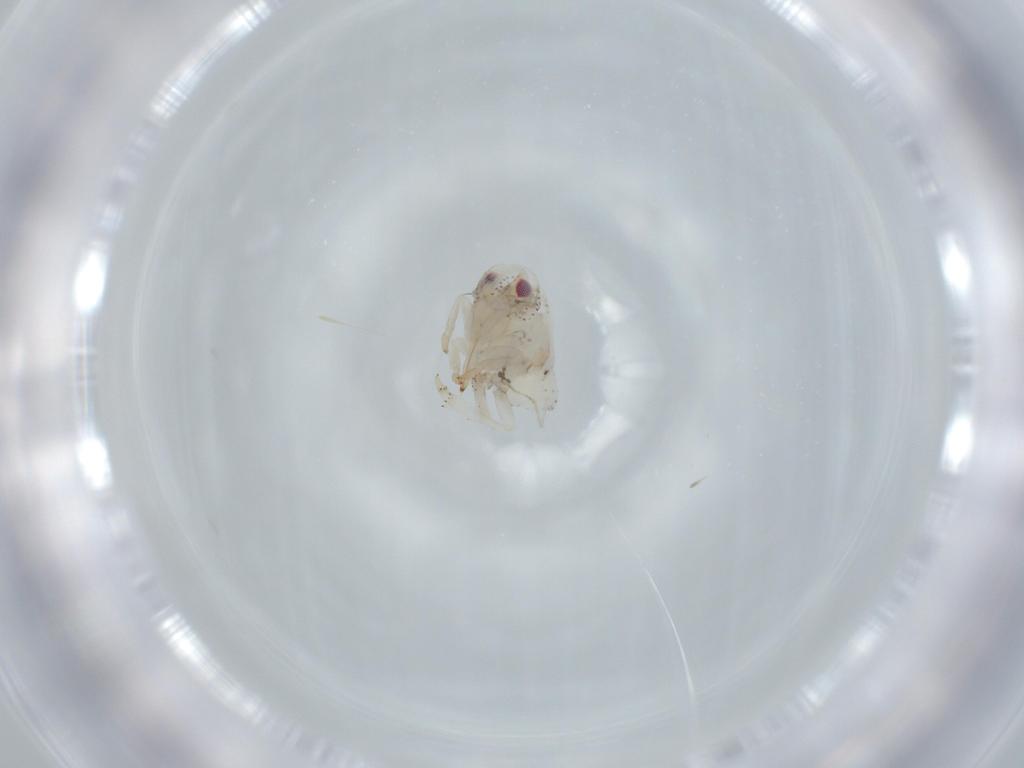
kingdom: Animalia
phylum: Arthropoda
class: Insecta
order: Hemiptera
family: Acanaloniidae
